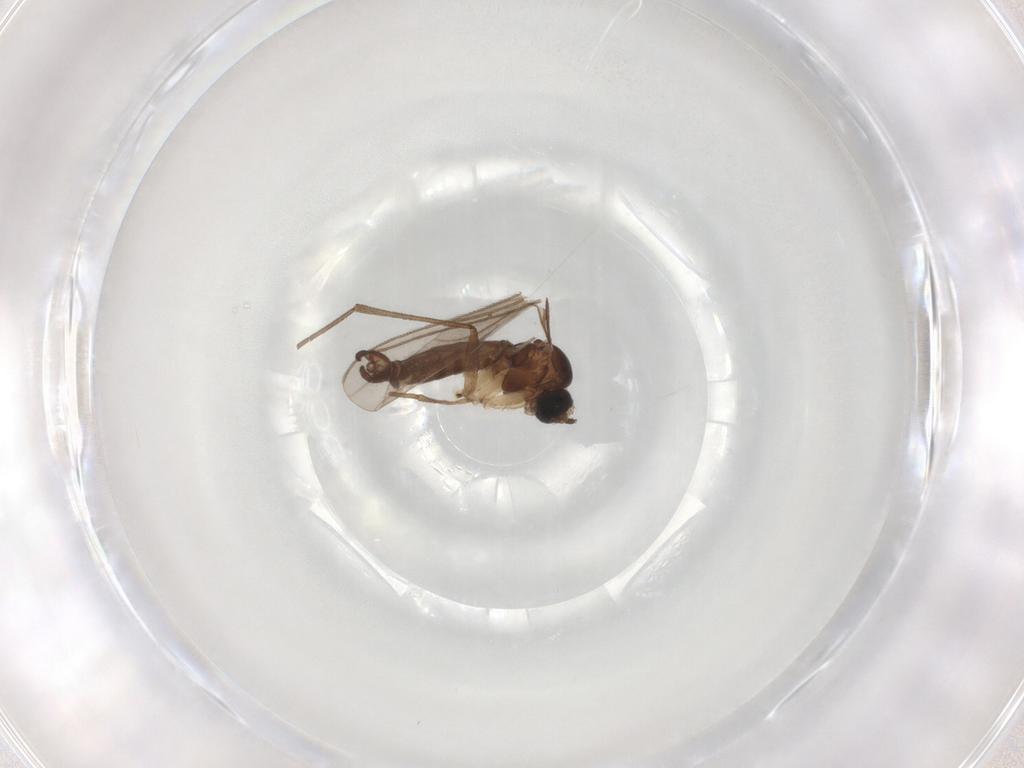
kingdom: Animalia
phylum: Arthropoda
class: Insecta
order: Diptera
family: Sciaridae
